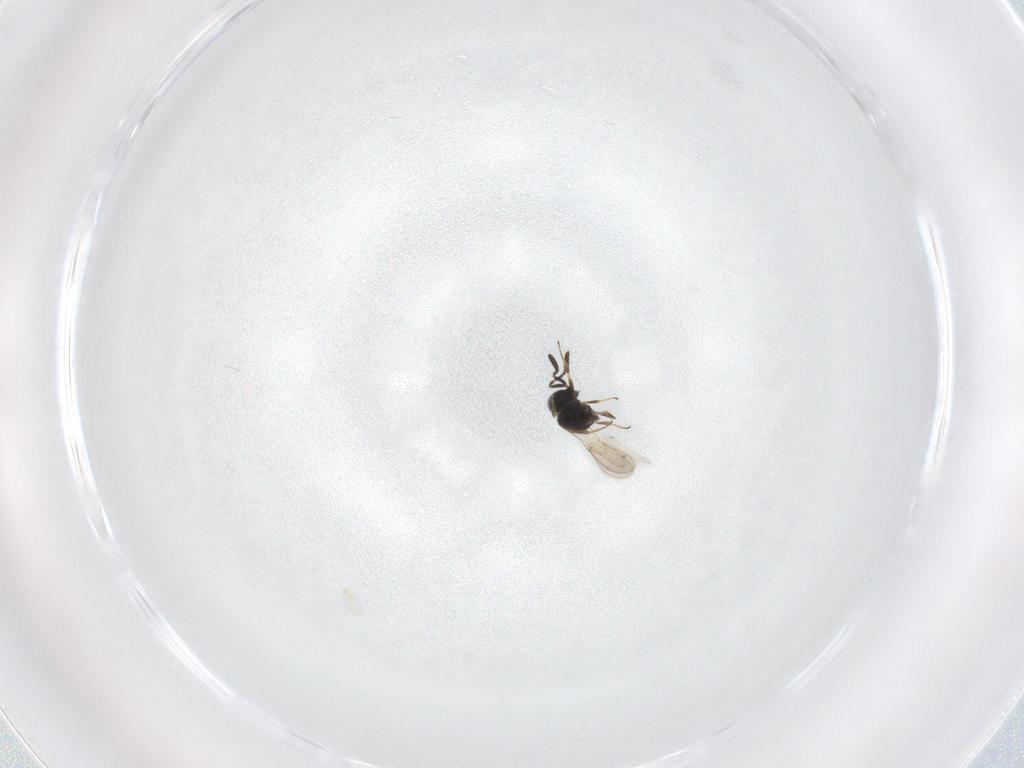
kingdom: Animalia
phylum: Arthropoda
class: Insecta
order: Hymenoptera
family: Scelionidae
